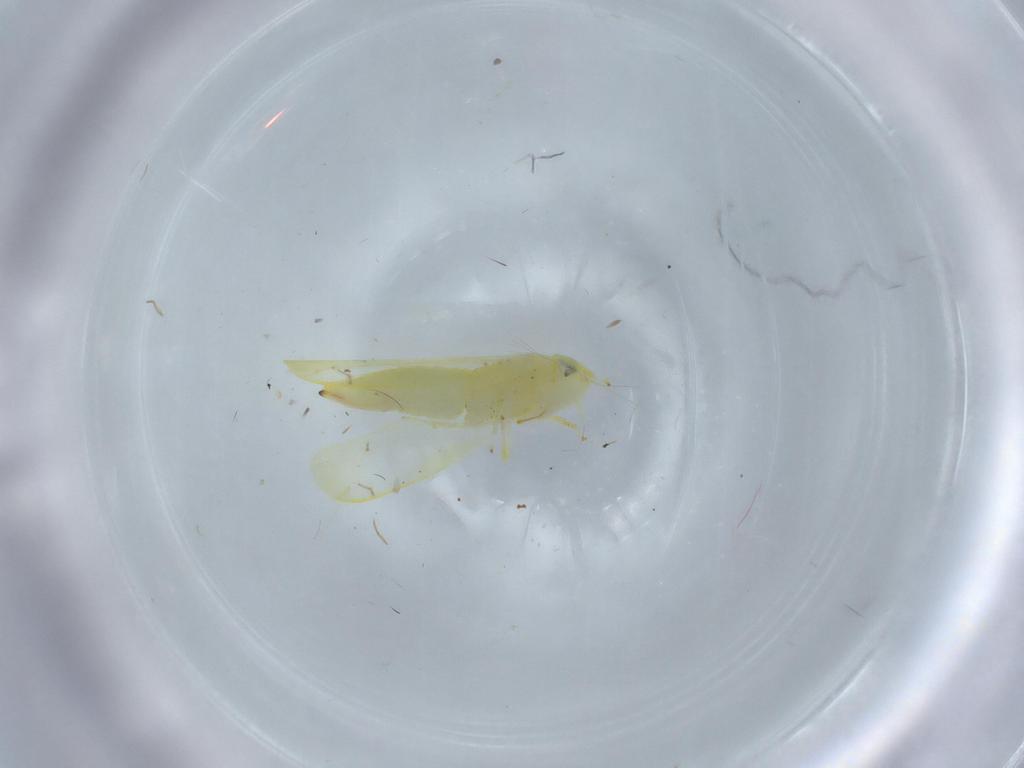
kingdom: Animalia
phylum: Arthropoda
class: Insecta
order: Hemiptera
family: Cicadellidae
